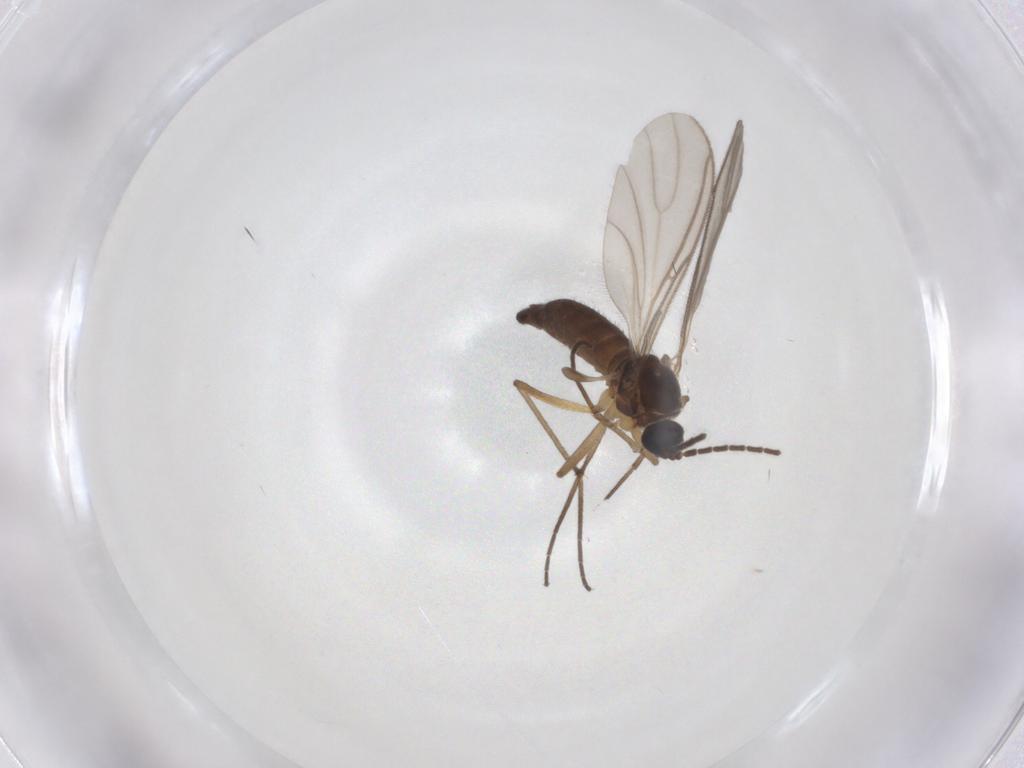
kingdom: Animalia
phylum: Arthropoda
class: Insecta
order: Diptera
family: Sciaridae
